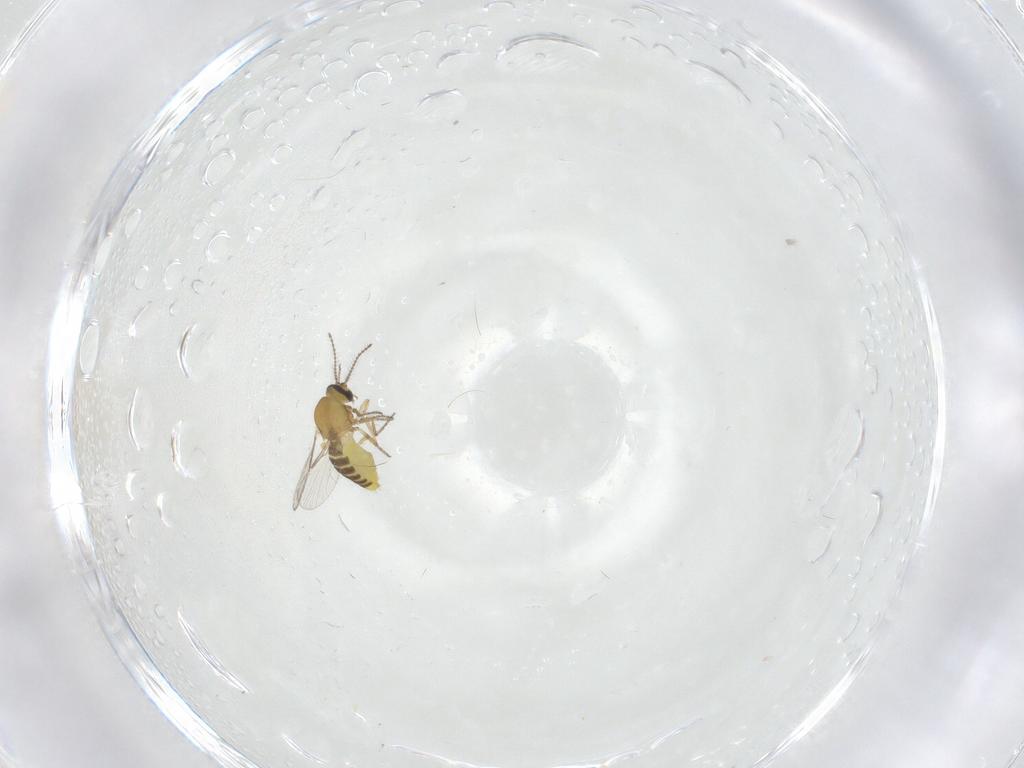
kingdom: Animalia
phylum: Arthropoda
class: Insecta
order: Diptera
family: Ceratopogonidae
